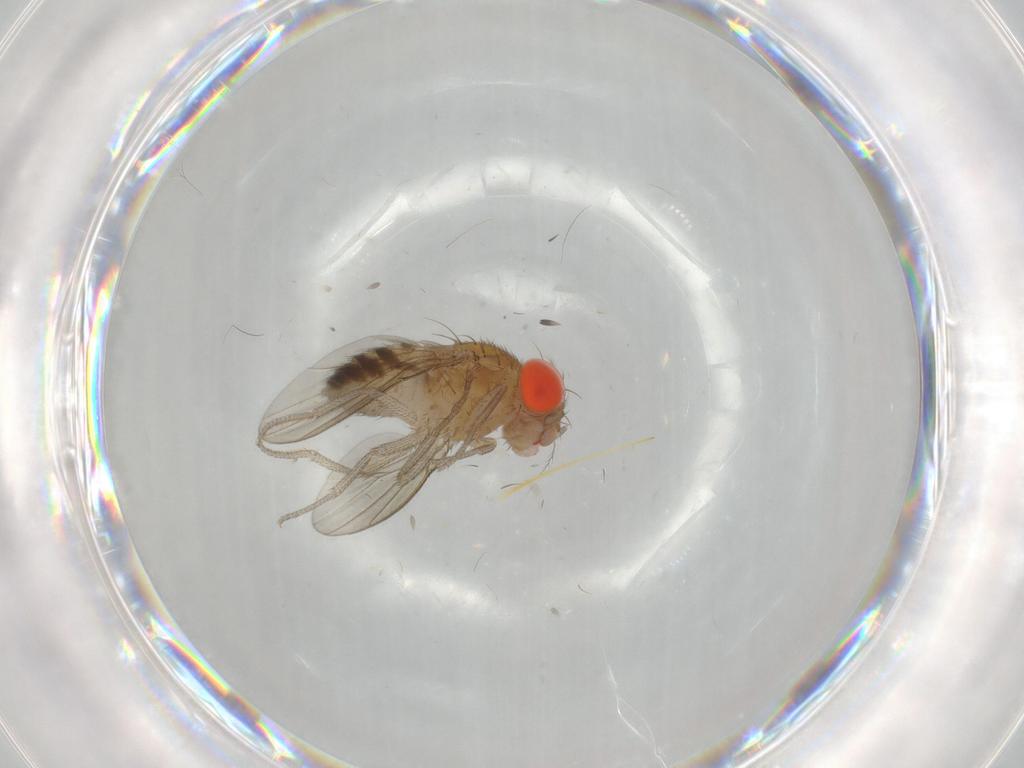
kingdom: Animalia
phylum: Arthropoda
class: Insecta
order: Diptera
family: Drosophilidae
